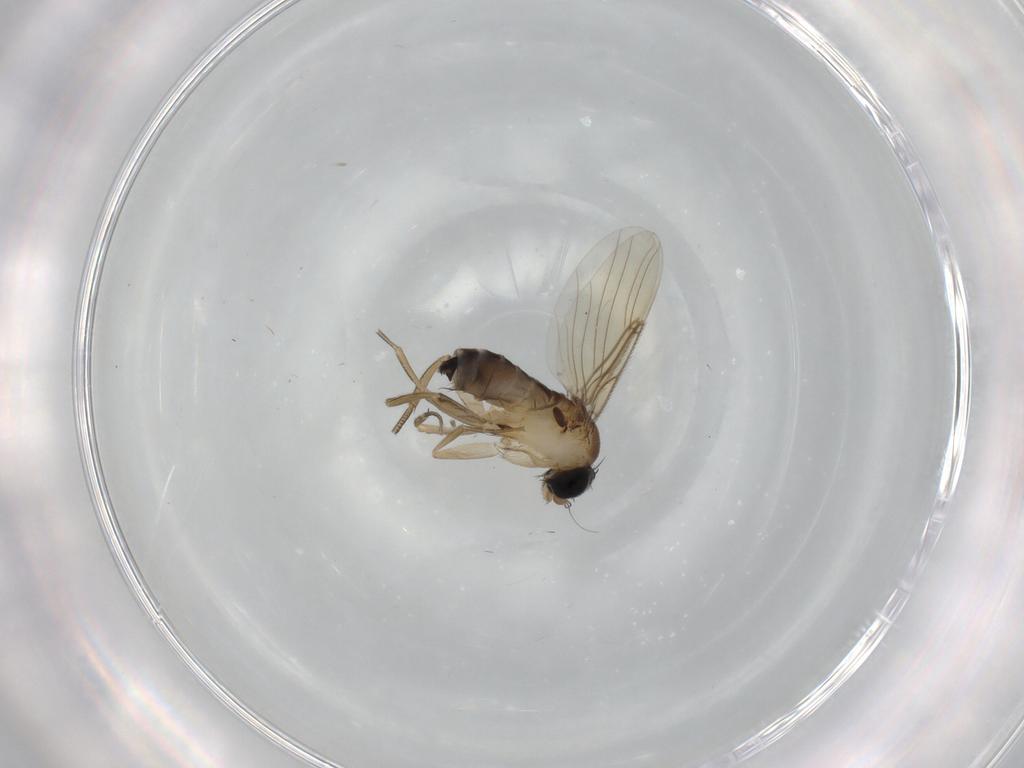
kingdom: Animalia
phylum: Arthropoda
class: Insecta
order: Diptera
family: Phoridae
